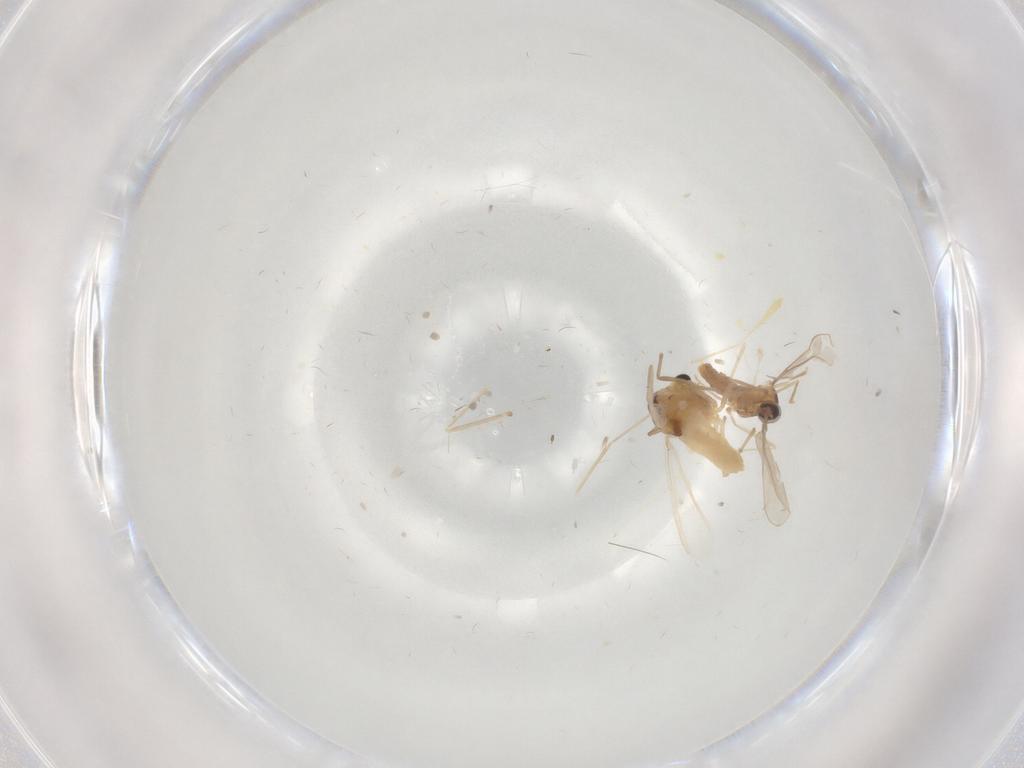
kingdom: Animalia
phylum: Arthropoda
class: Insecta
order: Diptera
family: Chironomidae
